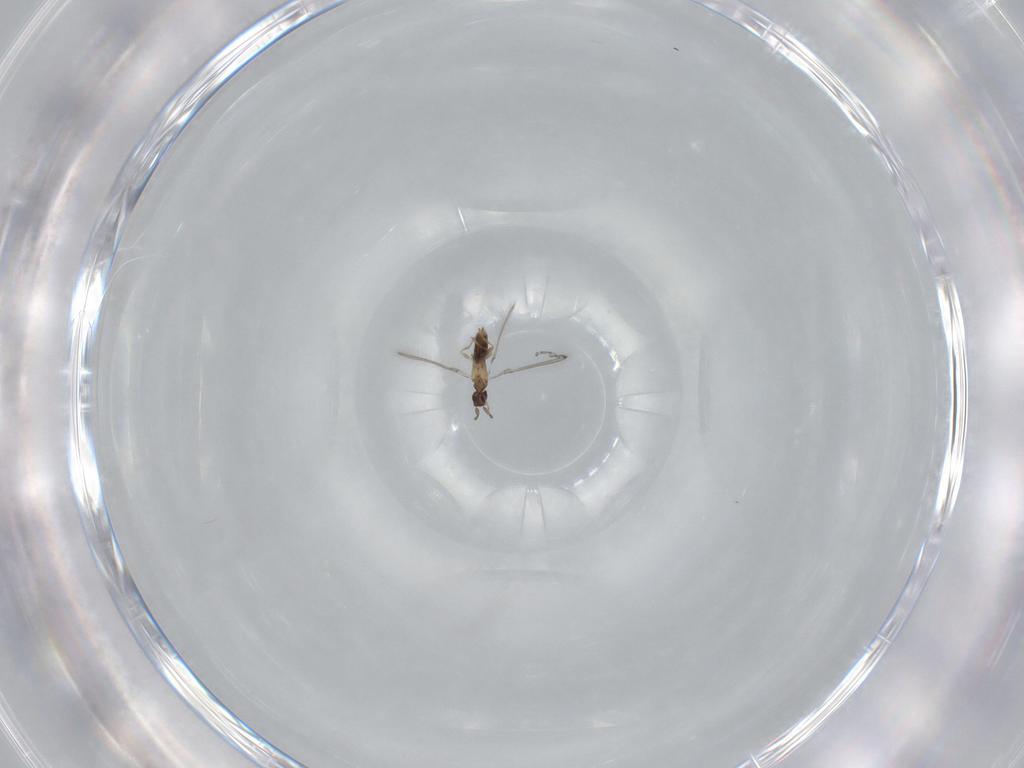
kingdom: Animalia
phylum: Arthropoda
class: Insecta
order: Hymenoptera
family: Mymaridae
